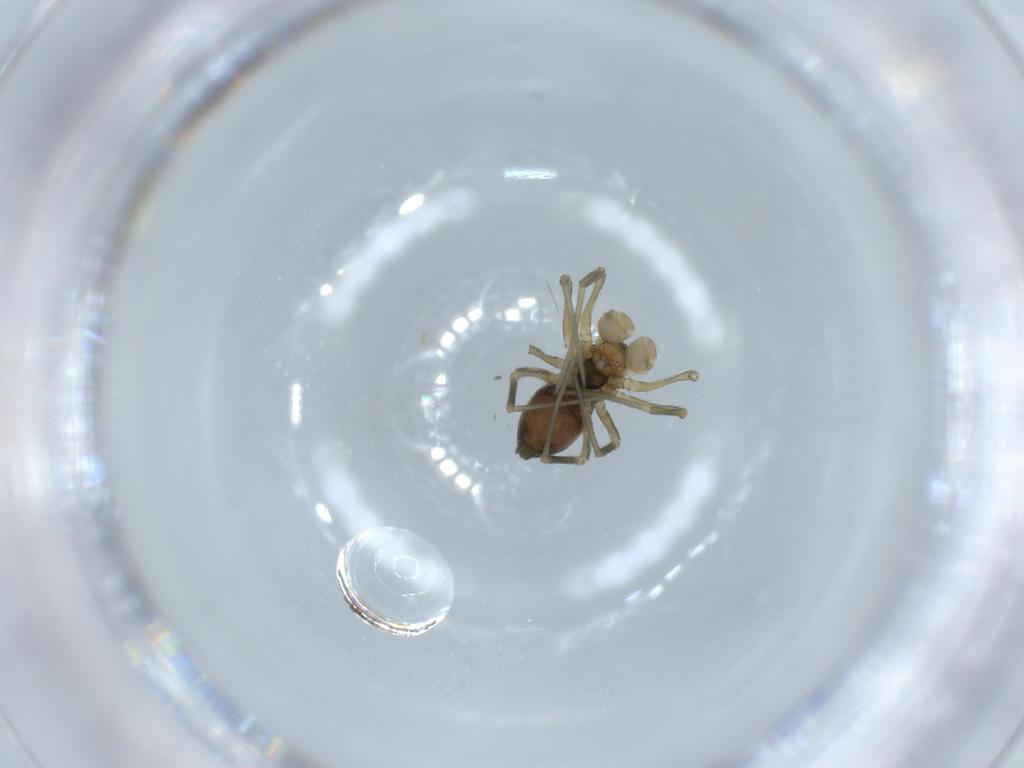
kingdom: Animalia
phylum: Arthropoda
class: Arachnida
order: Araneae
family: Linyphiidae
